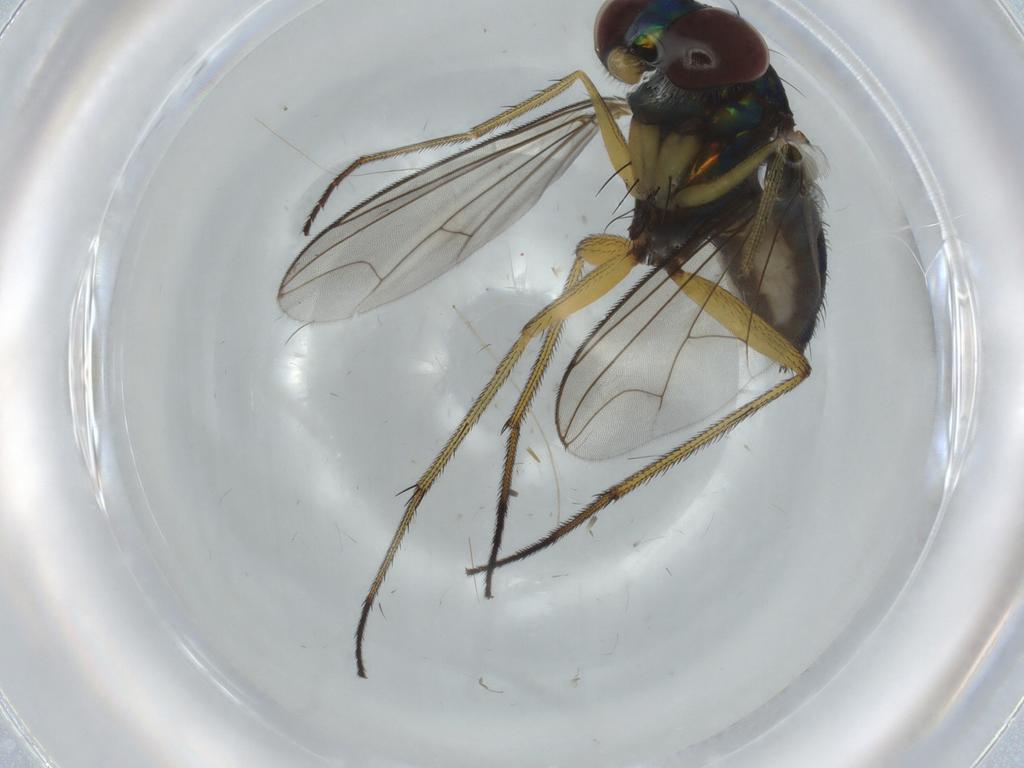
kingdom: Animalia
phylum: Arthropoda
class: Insecta
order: Diptera
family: Dolichopodidae
